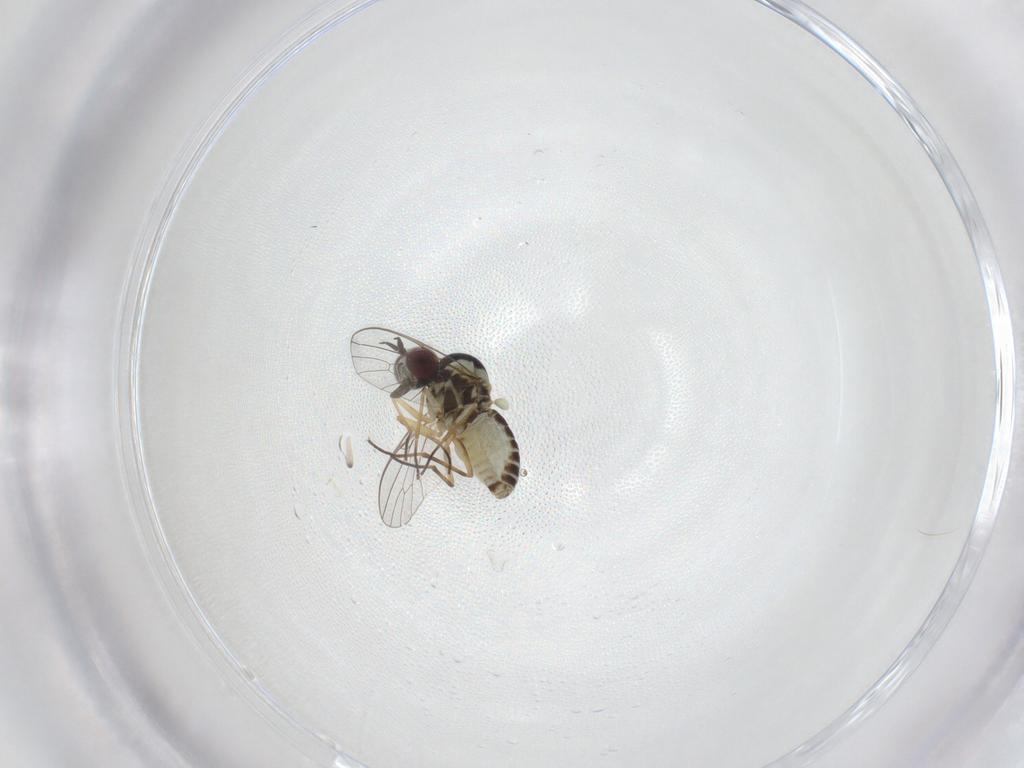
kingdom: Animalia
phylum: Arthropoda
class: Insecta
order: Diptera
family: Bombyliidae
